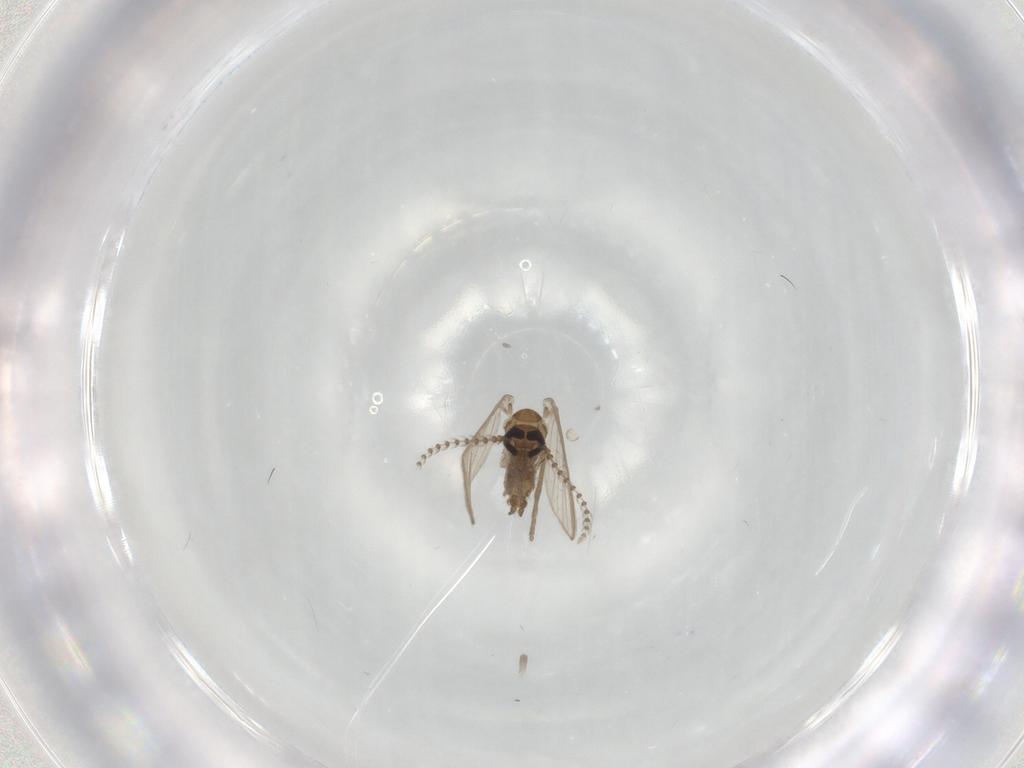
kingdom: Animalia
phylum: Arthropoda
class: Insecta
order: Diptera
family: Psychodidae
